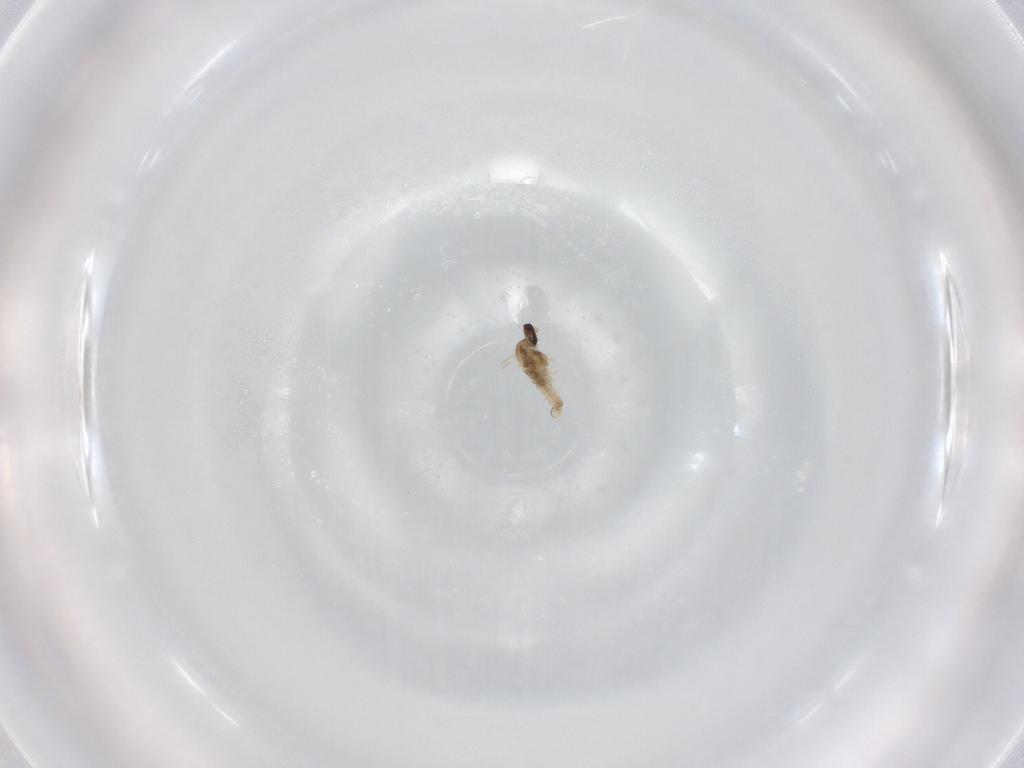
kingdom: Animalia
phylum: Arthropoda
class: Insecta
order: Diptera
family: Cecidomyiidae
